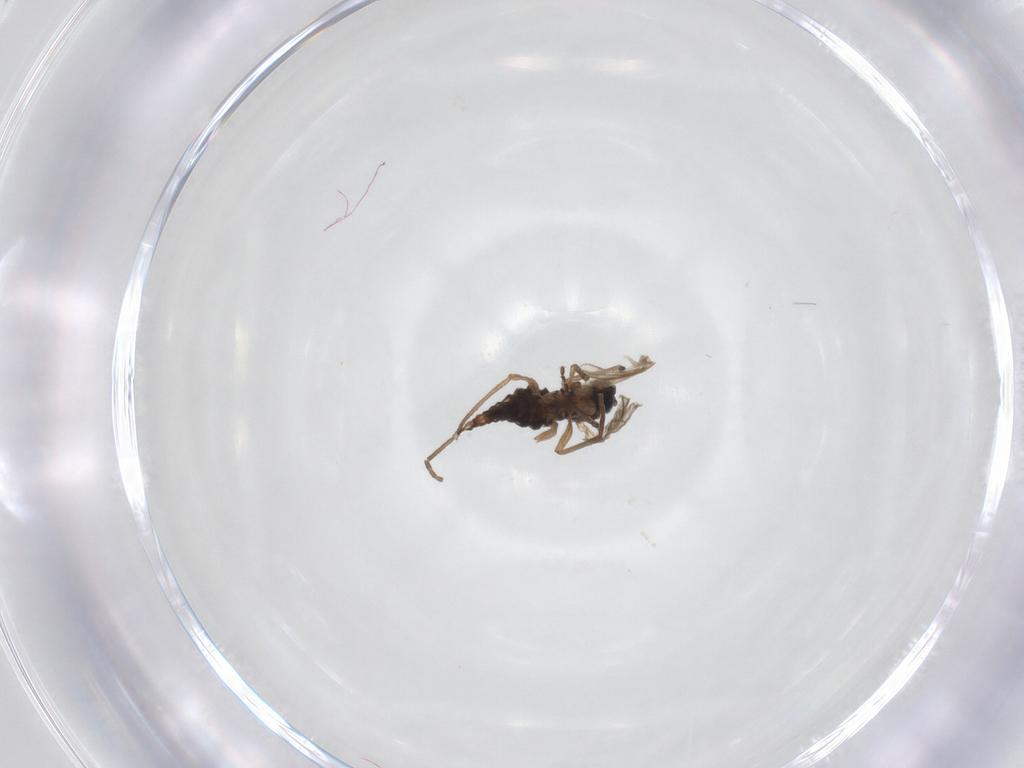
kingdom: Animalia
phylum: Arthropoda
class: Insecta
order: Diptera
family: Sciaridae
